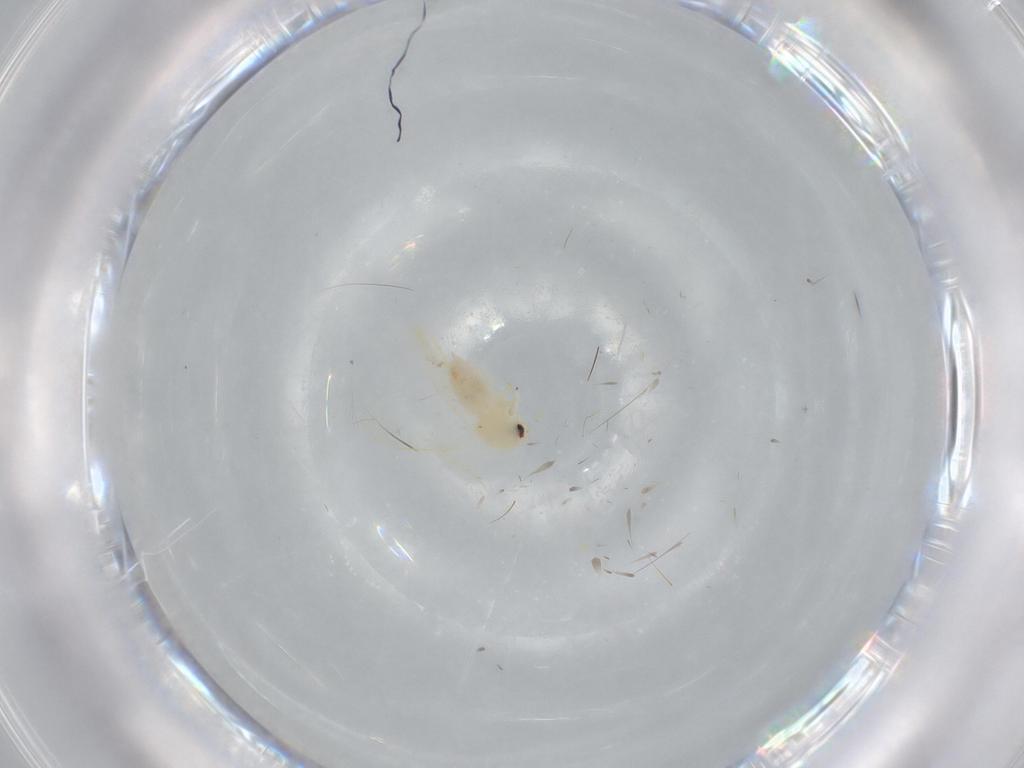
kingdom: Animalia
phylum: Arthropoda
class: Insecta
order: Hemiptera
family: Aleyrodidae
